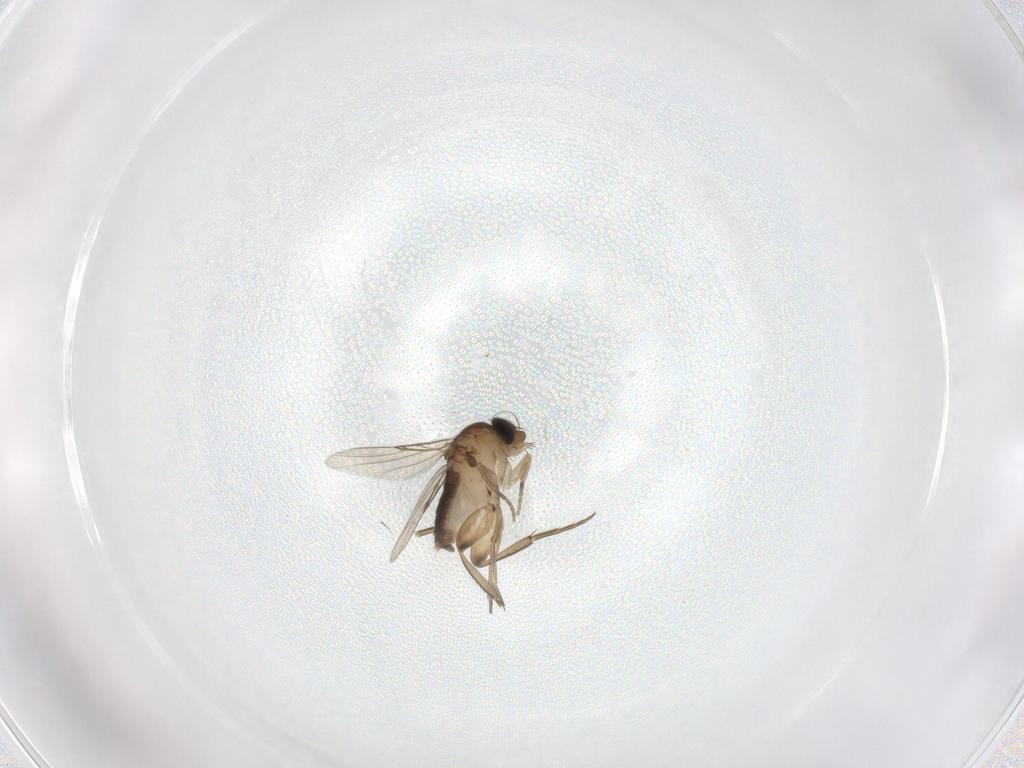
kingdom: Animalia
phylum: Arthropoda
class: Insecta
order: Diptera
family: Phoridae
